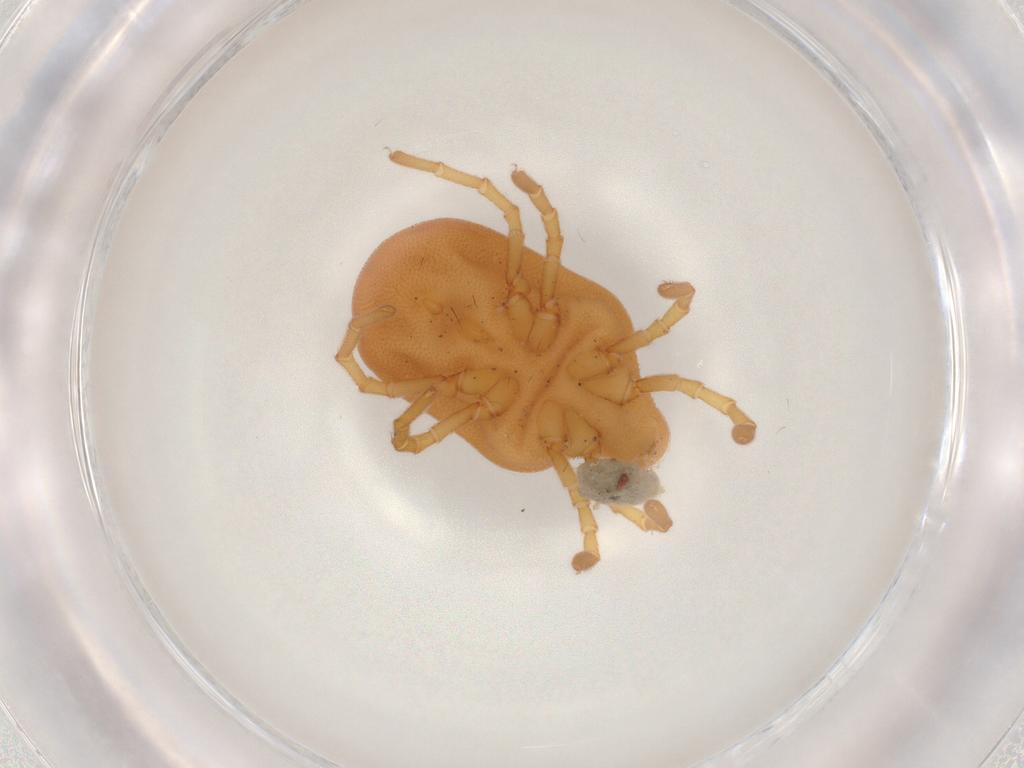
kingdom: Animalia
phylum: Arthropoda
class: Arachnida
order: Trombidiformes
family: Calyptostomatidae
